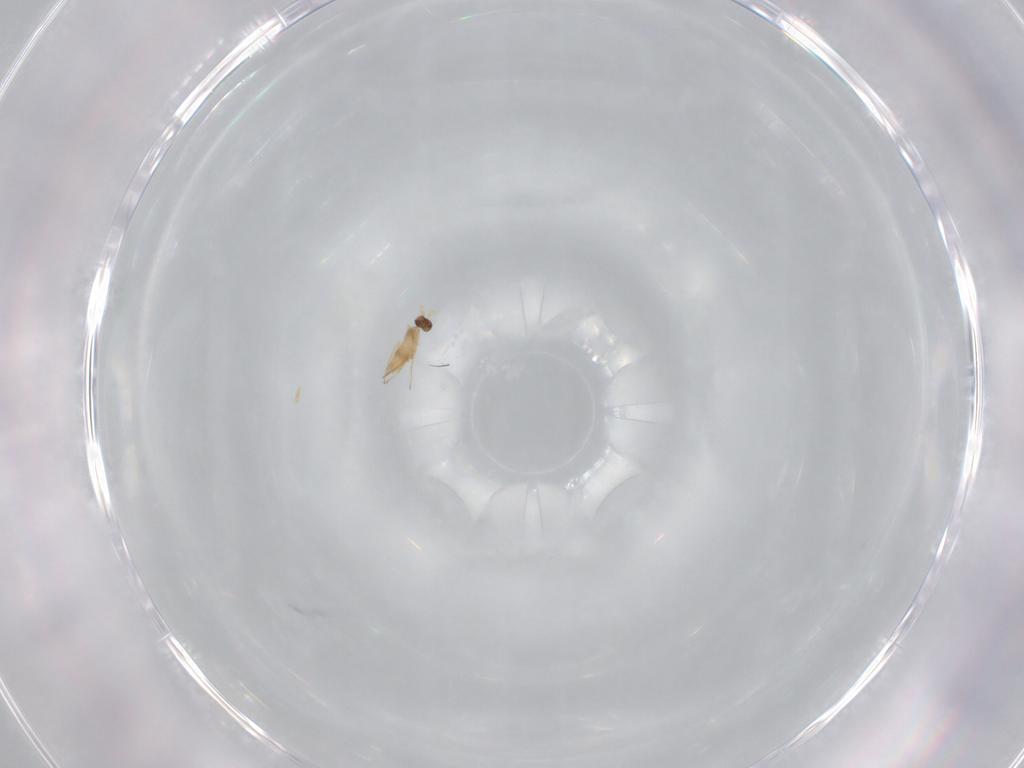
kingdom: Animalia
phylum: Arthropoda
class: Insecta
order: Hymenoptera
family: Mymaridae
